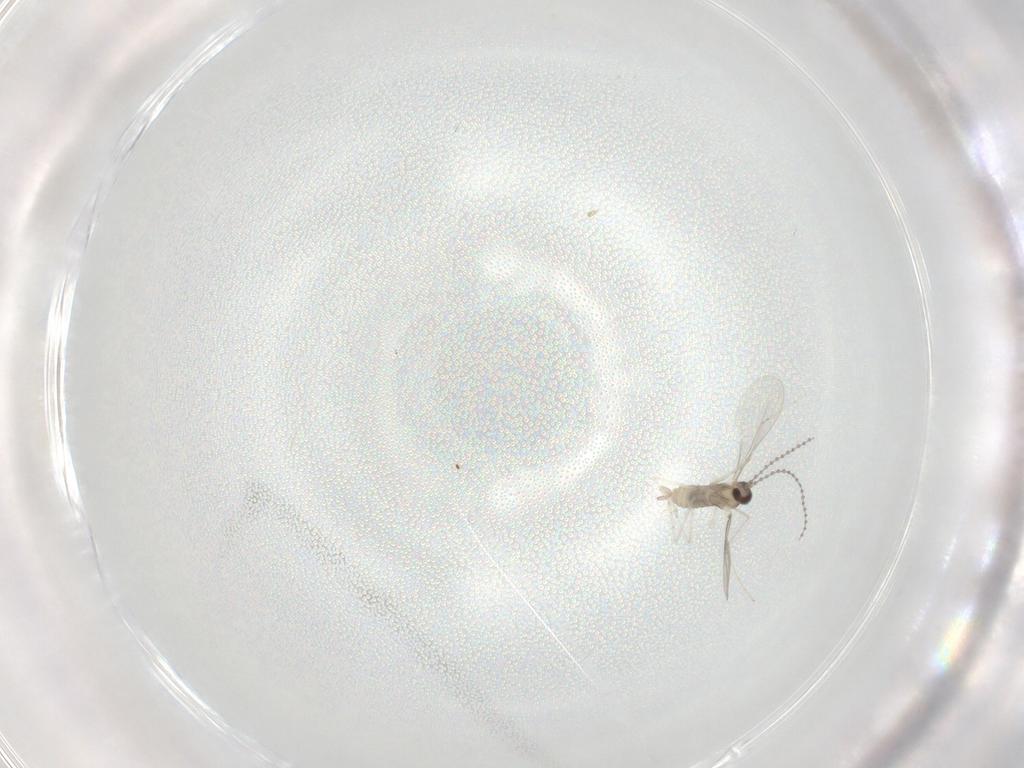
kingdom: Animalia
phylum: Arthropoda
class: Insecta
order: Diptera
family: Cecidomyiidae
